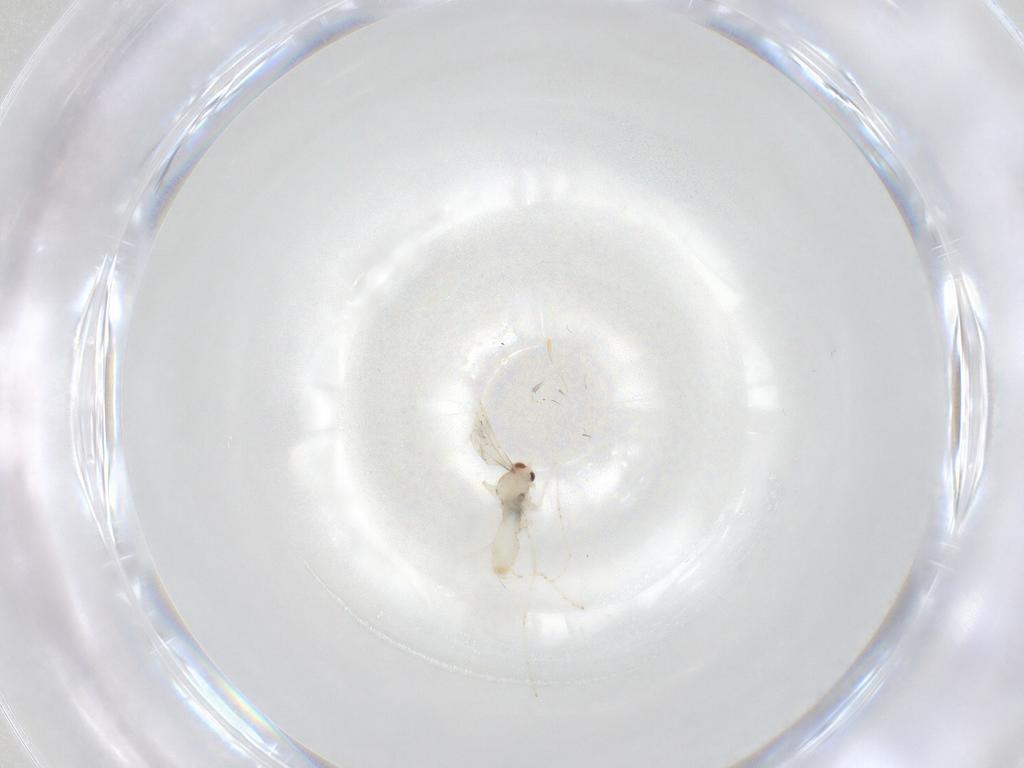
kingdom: Animalia
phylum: Arthropoda
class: Insecta
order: Diptera
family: Cecidomyiidae
